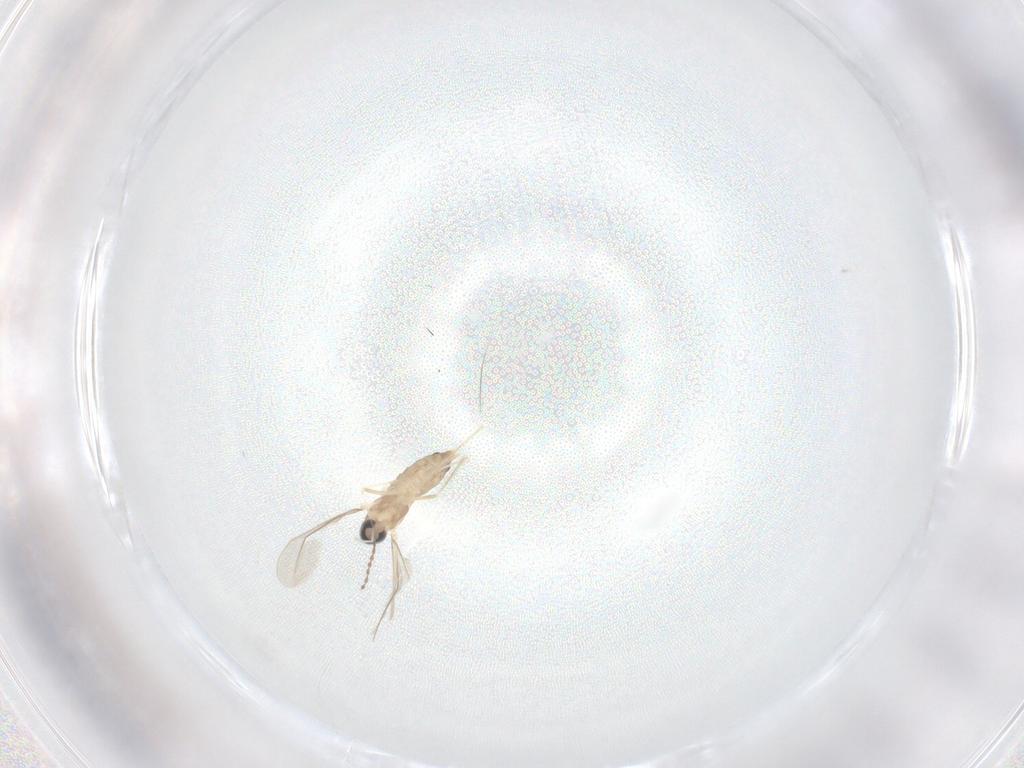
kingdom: Animalia
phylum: Arthropoda
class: Insecta
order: Diptera
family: Cecidomyiidae
